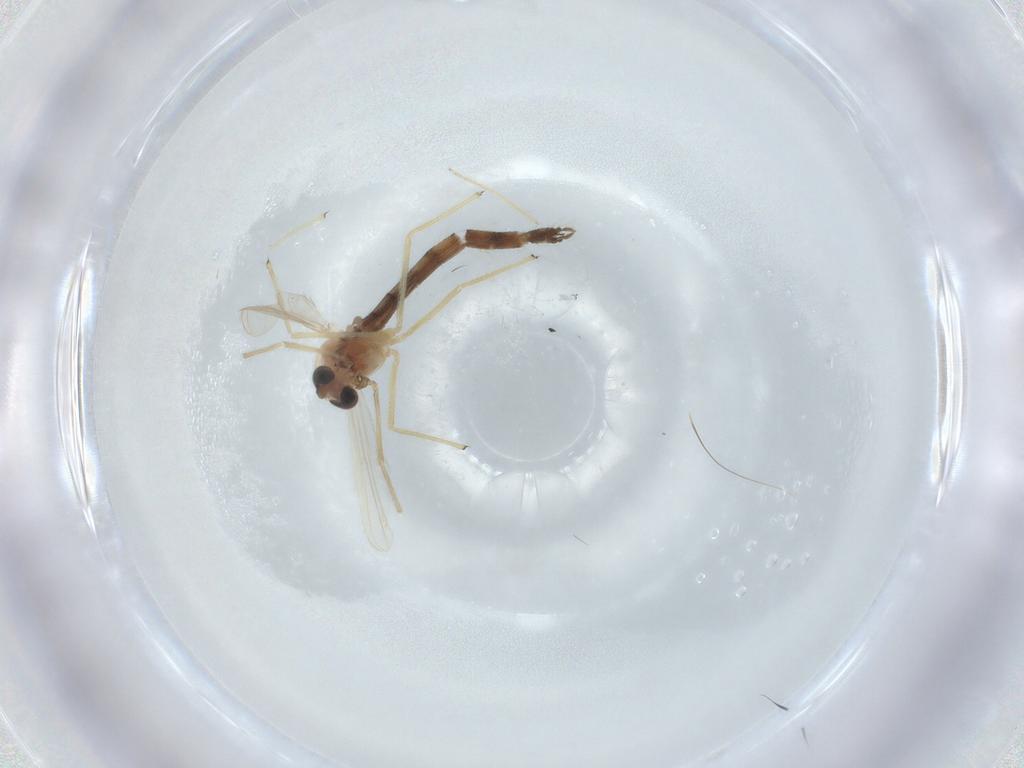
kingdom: Animalia
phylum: Arthropoda
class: Insecta
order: Diptera
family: Chironomidae
